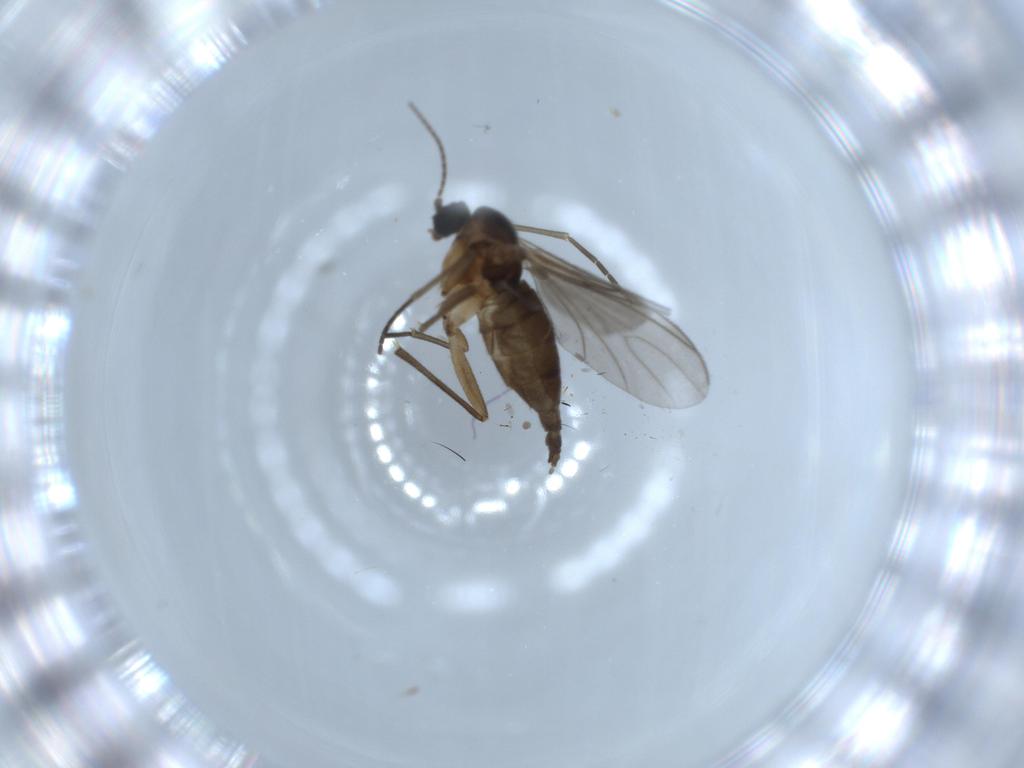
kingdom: Animalia
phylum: Arthropoda
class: Insecta
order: Diptera
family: Sciaridae
